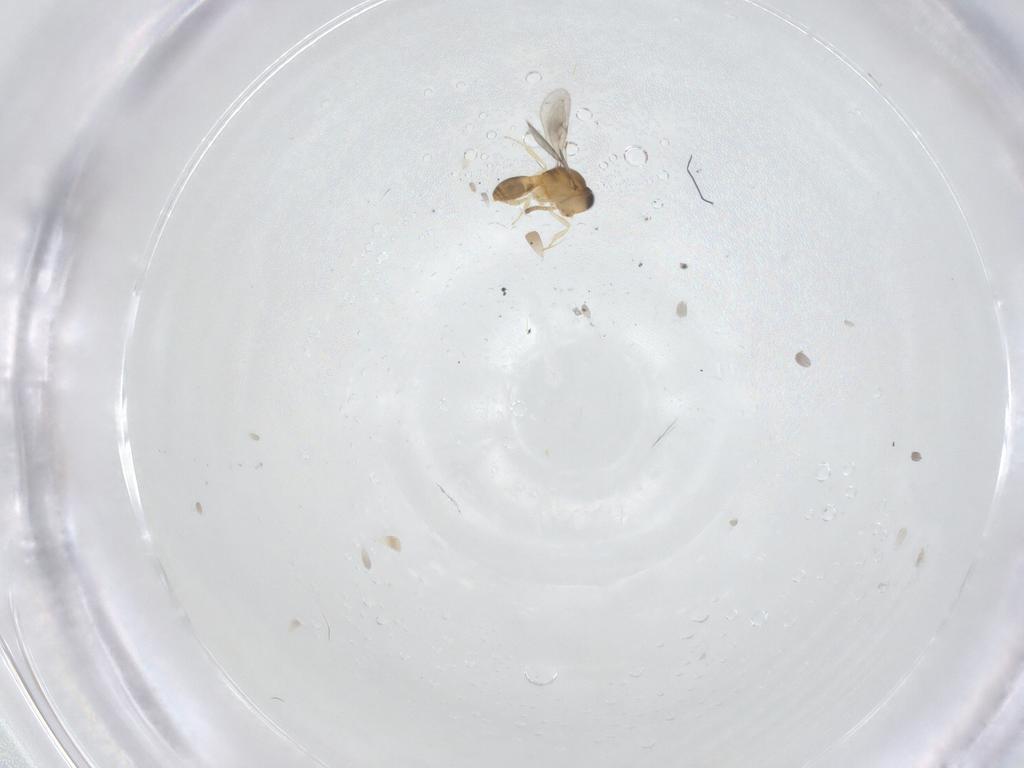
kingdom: Animalia
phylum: Arthropoda
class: Insecta
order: Hymenoptera
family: Scelionidae
